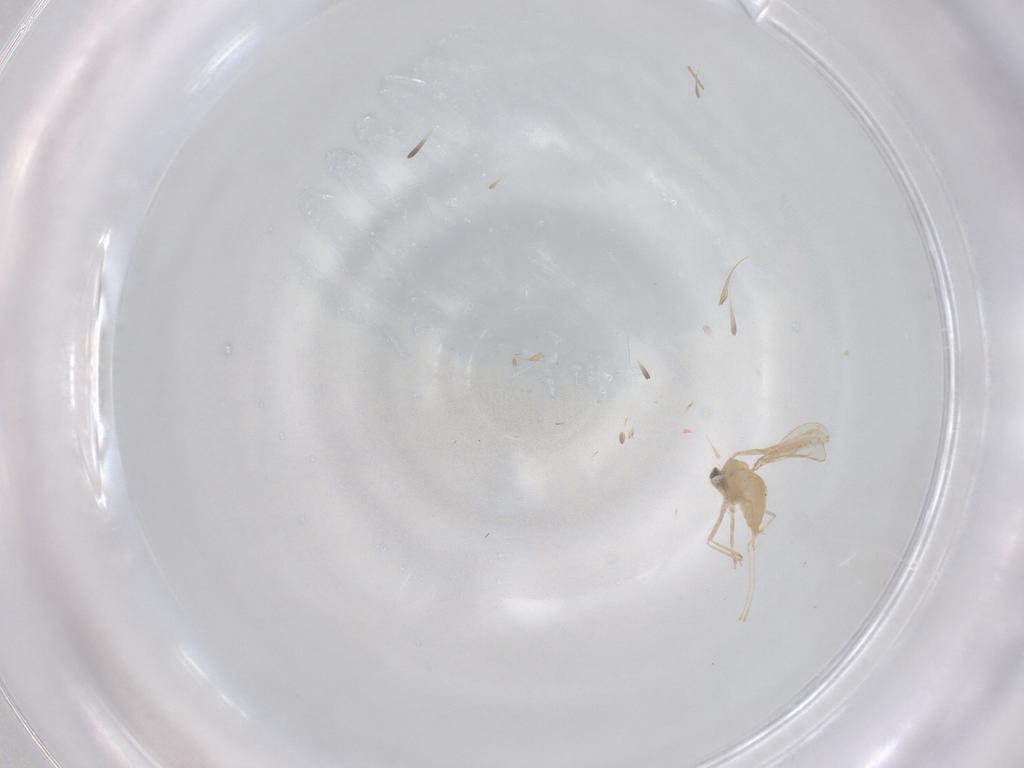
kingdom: Animalia
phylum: Arthropoda
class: Insecta
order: Diptera
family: Cecidomyiidae
